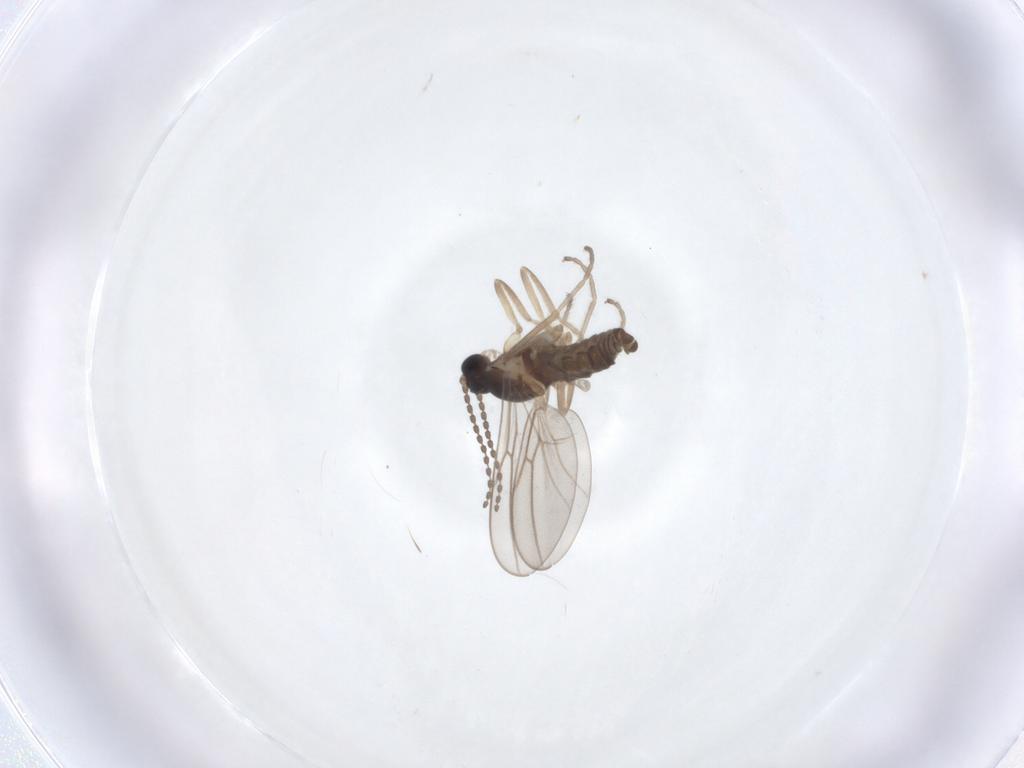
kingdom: Animalia
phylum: Arthropoda
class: Insecta
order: Diptera
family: Cecidomyiidae
